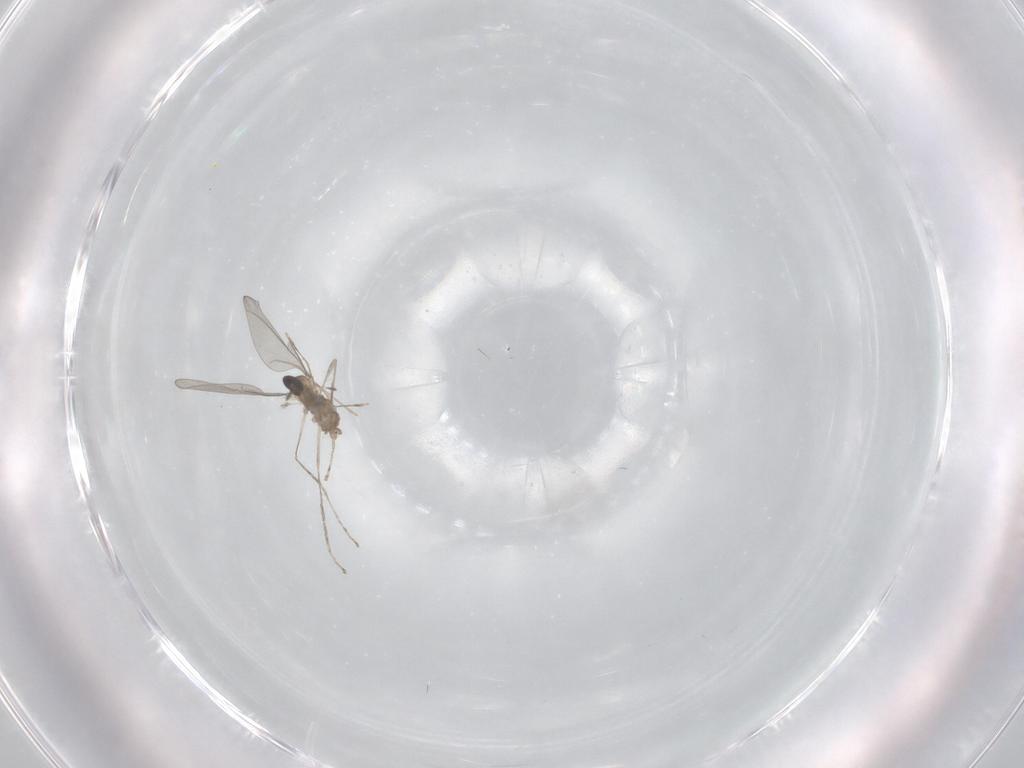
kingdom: Animalia
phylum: Arthropoda
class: Insecta
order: Diptera
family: Cecidomyiidae
